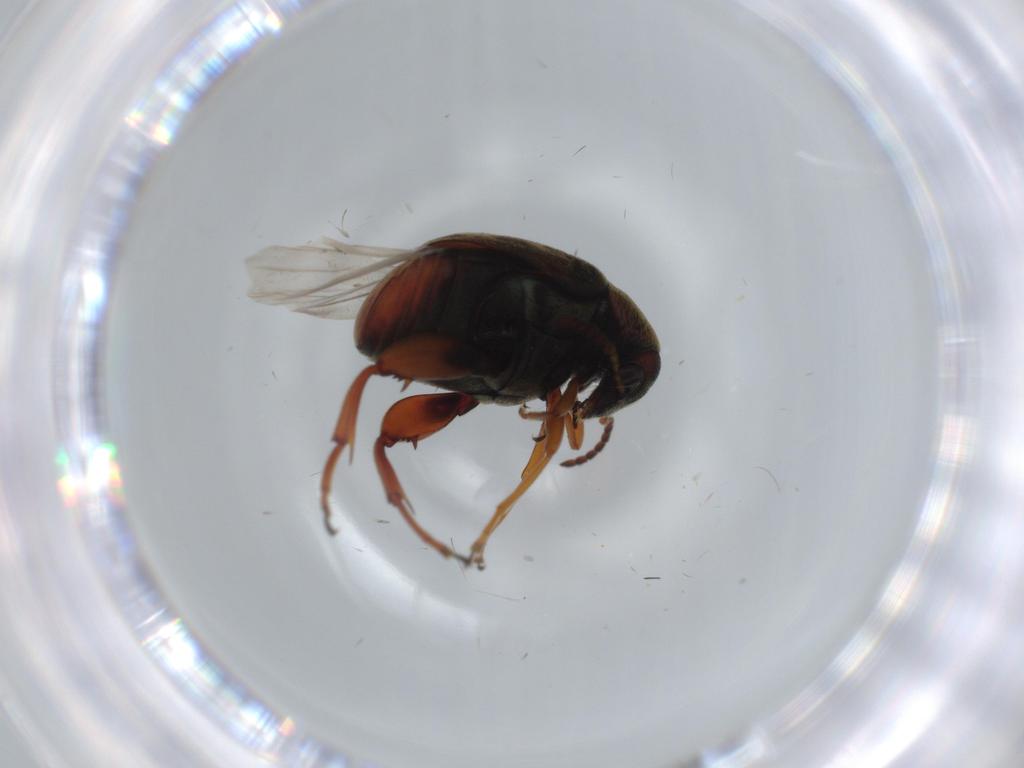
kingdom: Animalia
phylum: Arthropoda
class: Insecta
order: Coleoptera
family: Chrysomelidae
